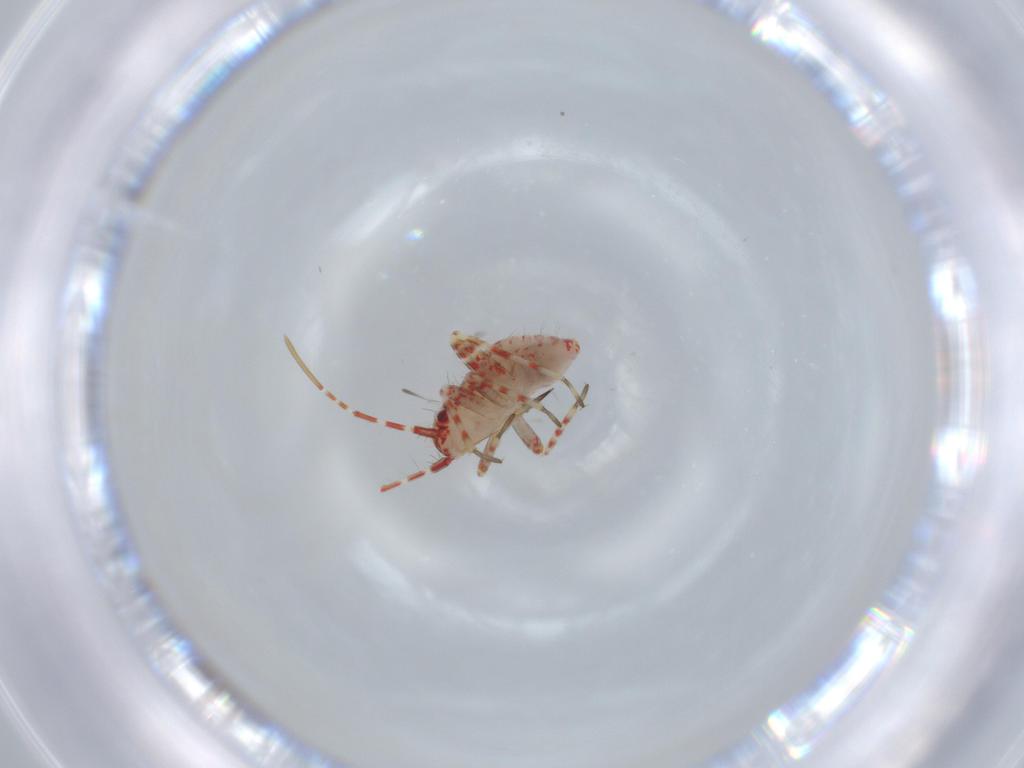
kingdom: Animalia
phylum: Arthropoda
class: Insecta
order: Hemiptera
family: Miridae
